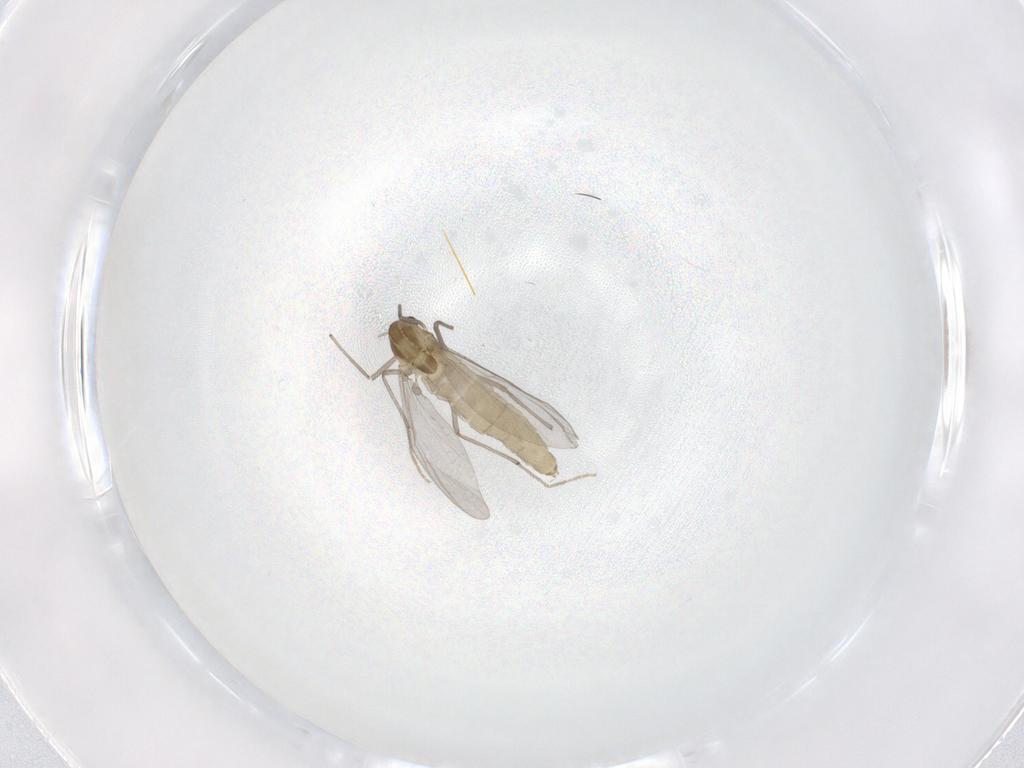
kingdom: Animalia
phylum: Arthropoda
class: Insecta
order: Diptera
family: Chironomidae
